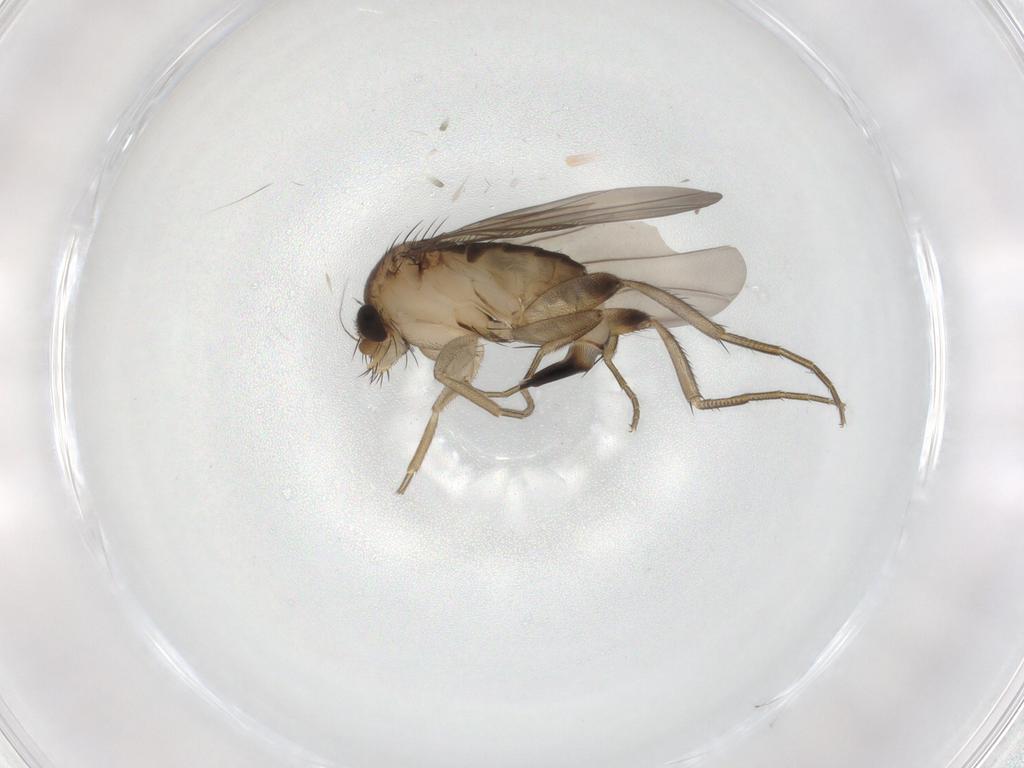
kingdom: Animalia
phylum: Arthropoda
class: Insecta
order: Diptera
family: Phoridae
